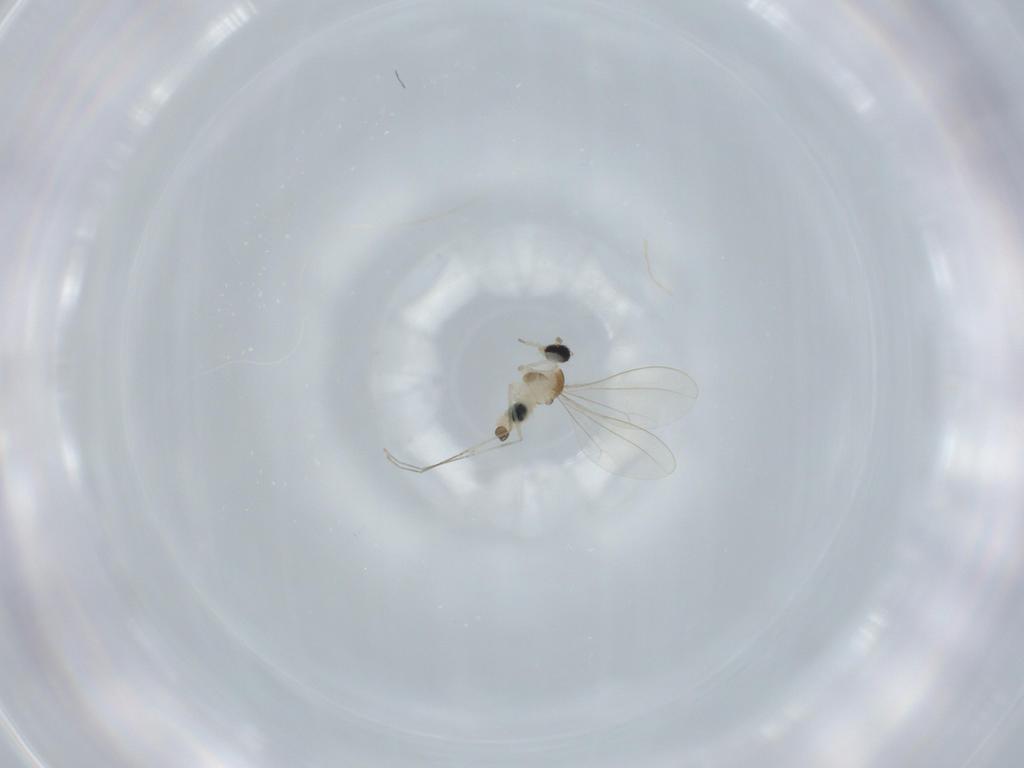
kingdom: Animalia
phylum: Arthropoda
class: Insecta
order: Diptera
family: Cecidomyiidae
